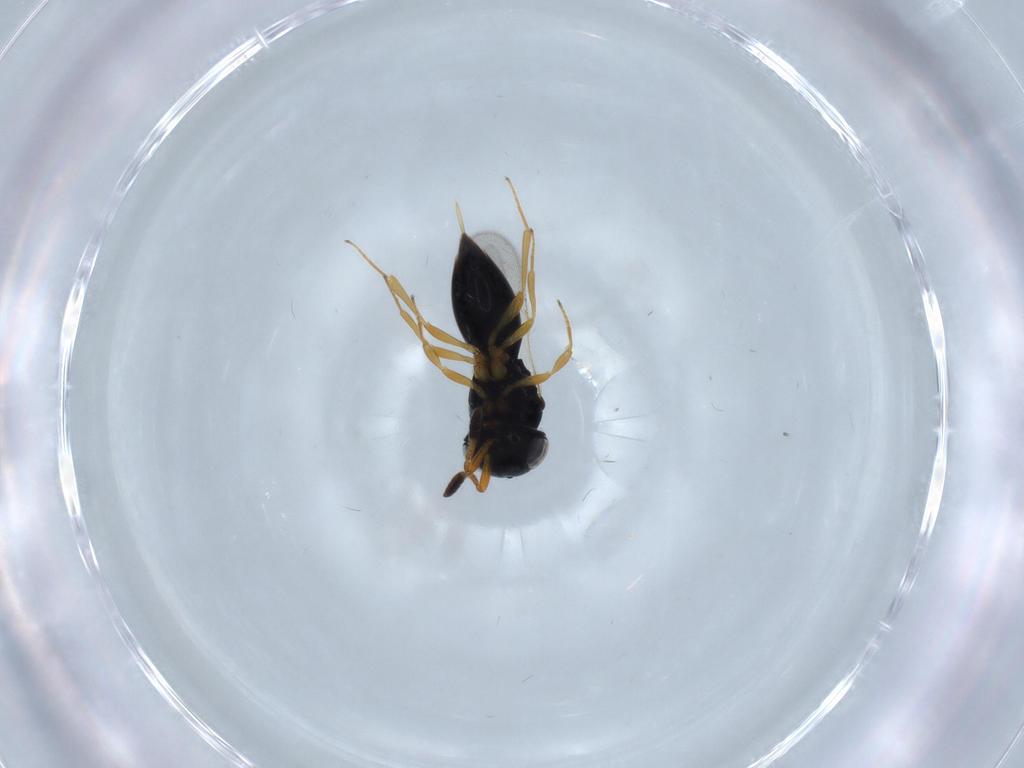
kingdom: Animalia
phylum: Arthropoda
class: Insecta
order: Hymenoptera
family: Scelionidae
